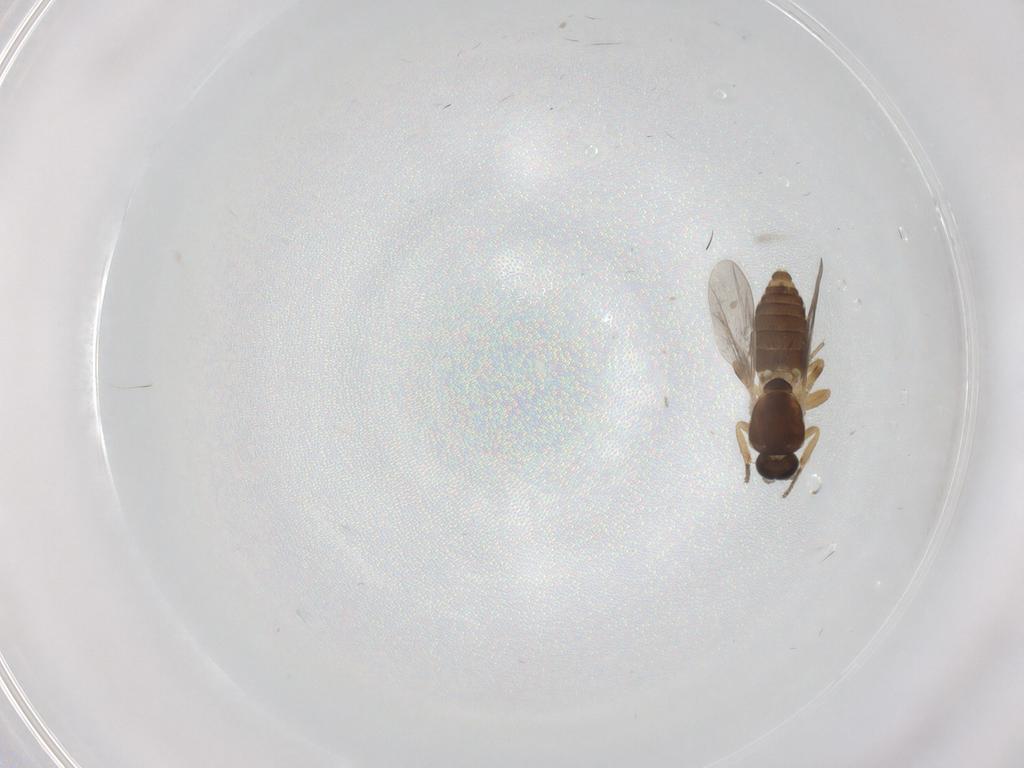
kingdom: Animalia
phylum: Arthropoda
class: Insecta
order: Diptera
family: Ceratopogonidae
